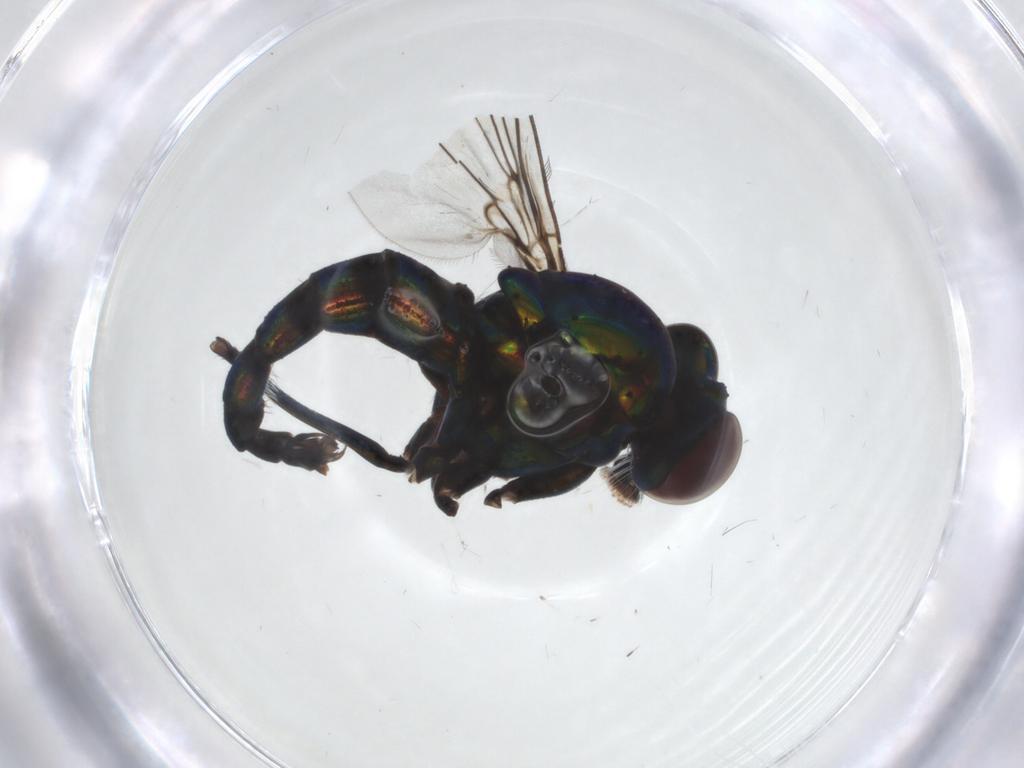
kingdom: Animalia
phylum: Arthropoda
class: Insecta
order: Diptera
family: Dolichopodidae
